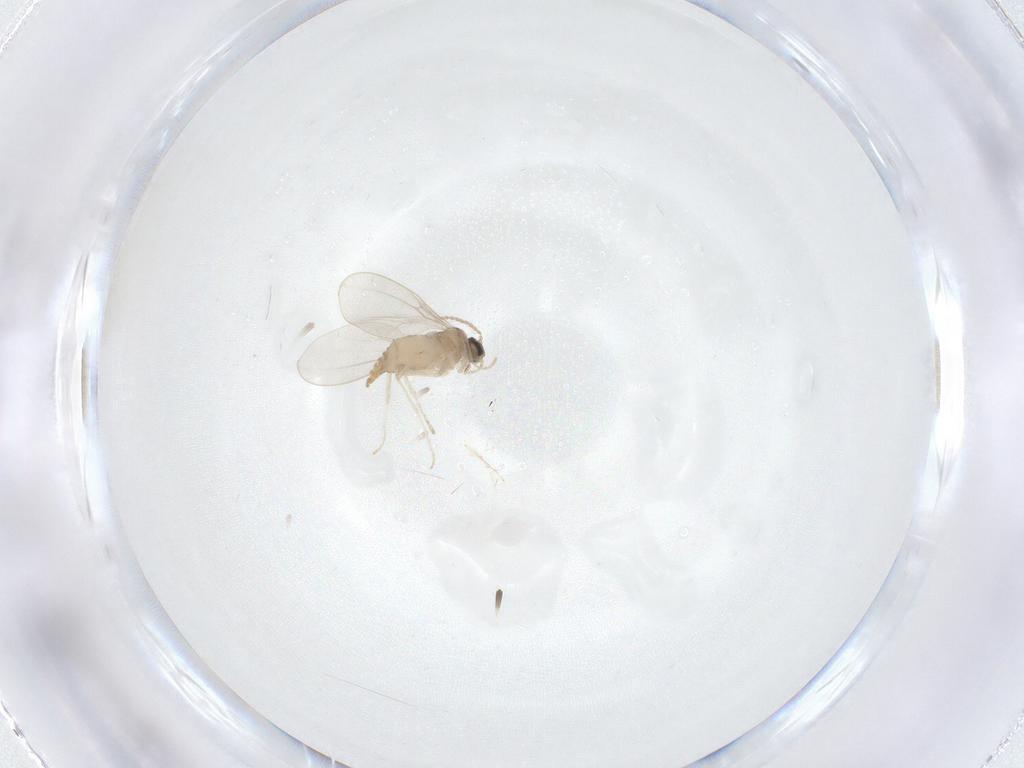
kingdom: Animalia
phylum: Arthropoda
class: Insecta
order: Diptera
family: Cecidomyiidae
